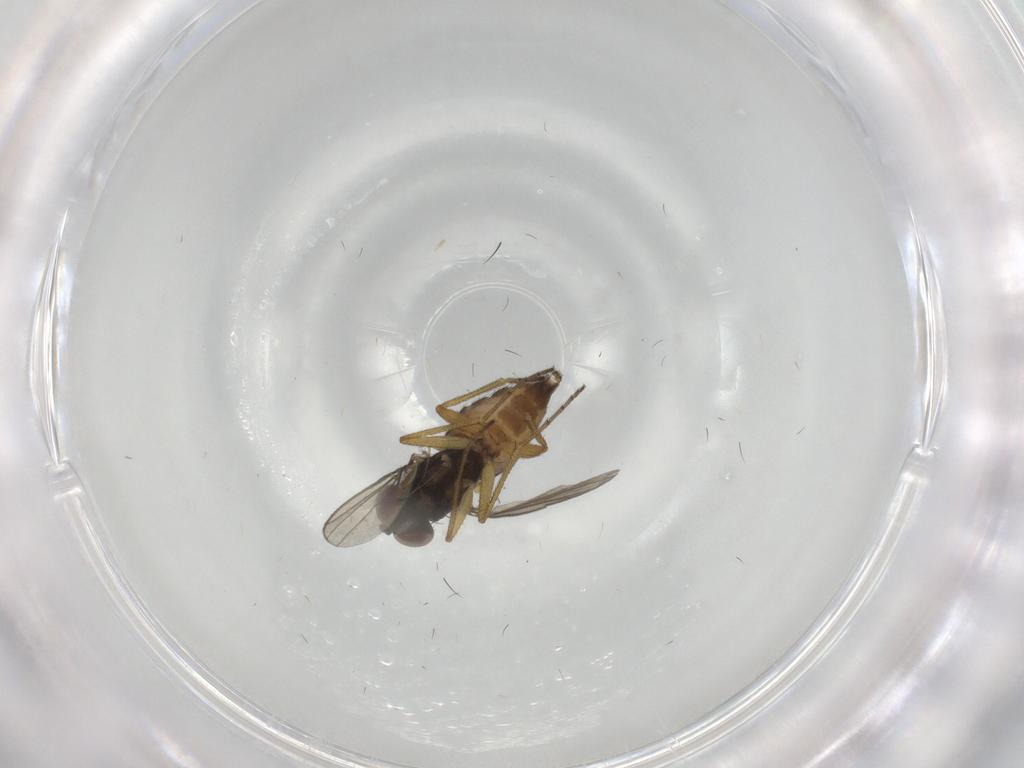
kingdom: Animalia
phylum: Arthropoda
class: Insecta
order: Diptera
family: Dolichopodidae
